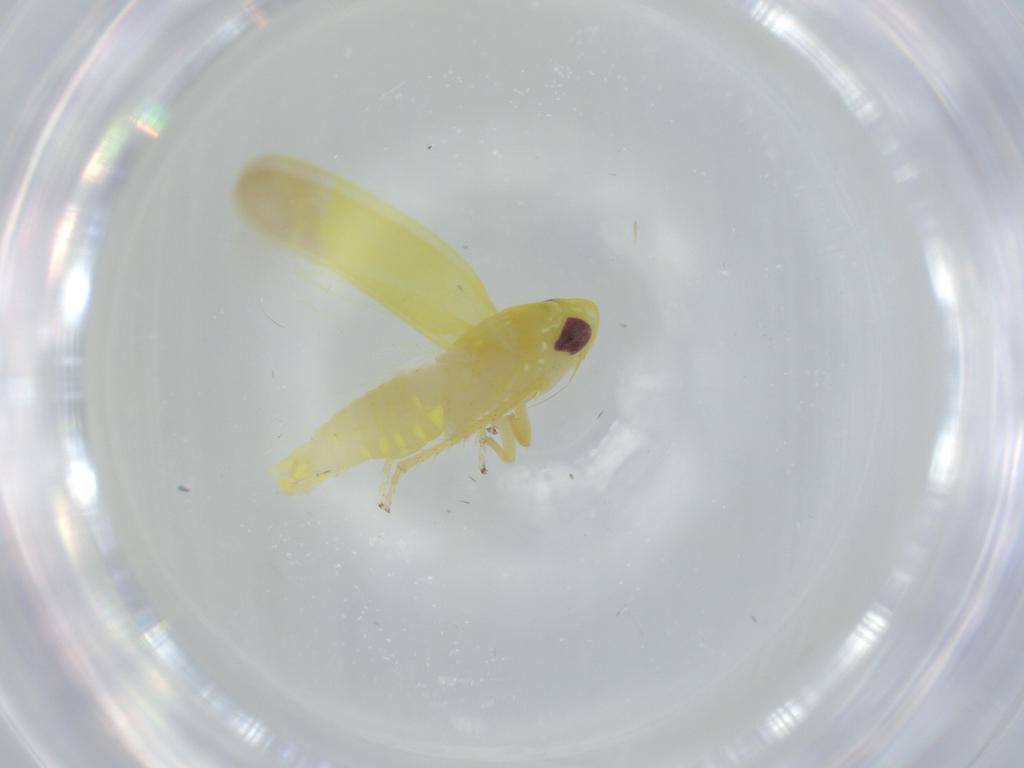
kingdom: Animalia
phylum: Arthropoda
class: Insecta
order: Hemiptera
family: Cicadellidae
